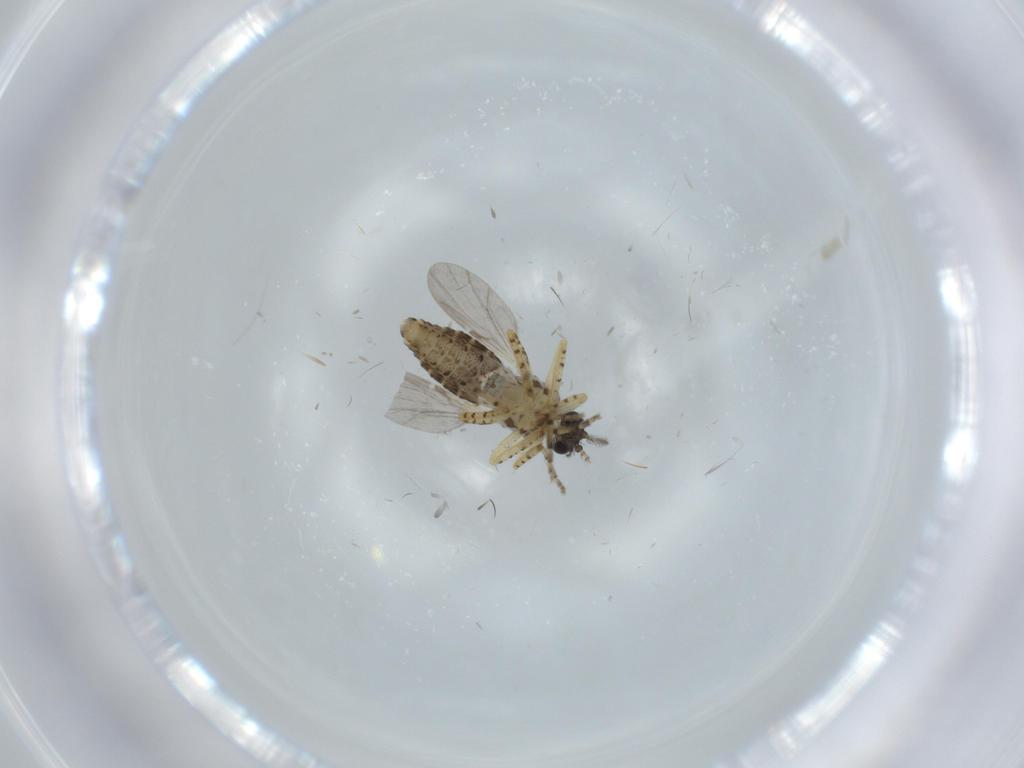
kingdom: Animalia
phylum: Arthropoda
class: Insecta
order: Diptera
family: Ceratopogonidae
